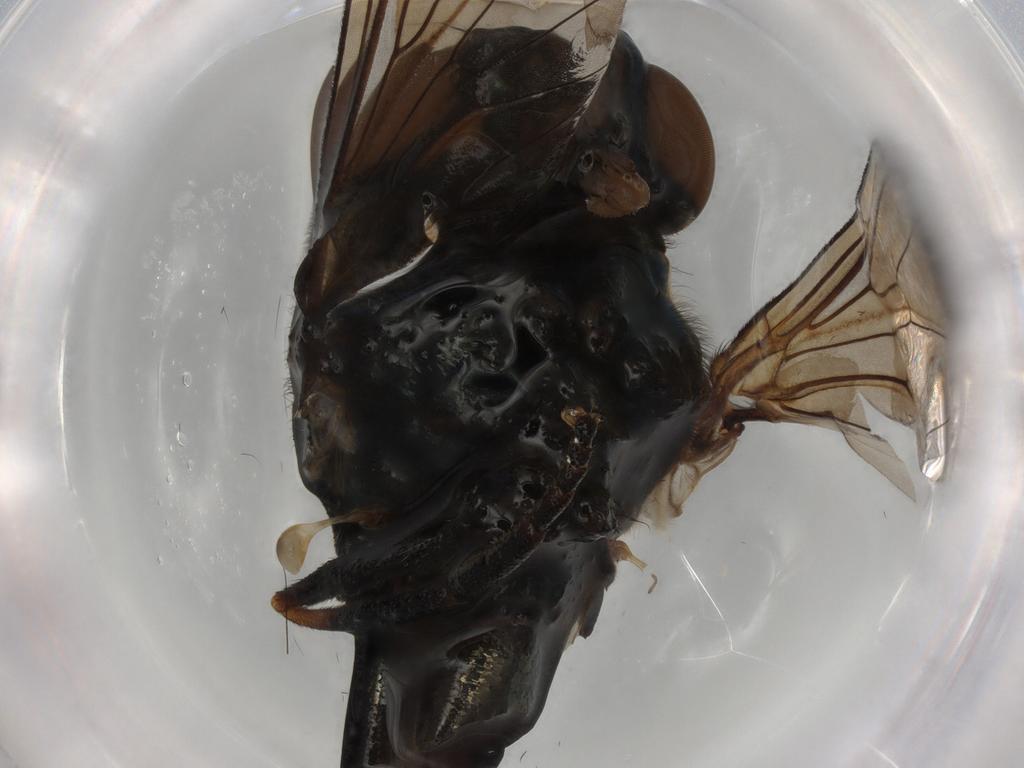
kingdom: Animalia
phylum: Arthropoda
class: Insecta
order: Diptera
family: Syrphidae
